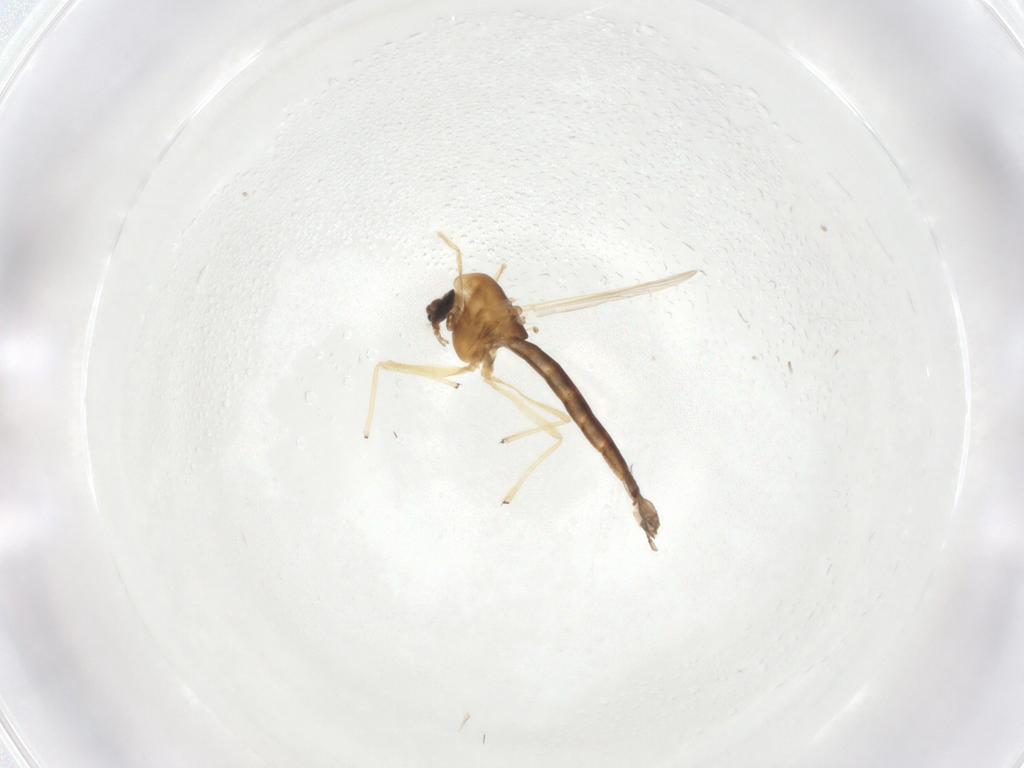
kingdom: Animalia
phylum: Arthropoda
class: Insecta
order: Diptera
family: Chironomidae
